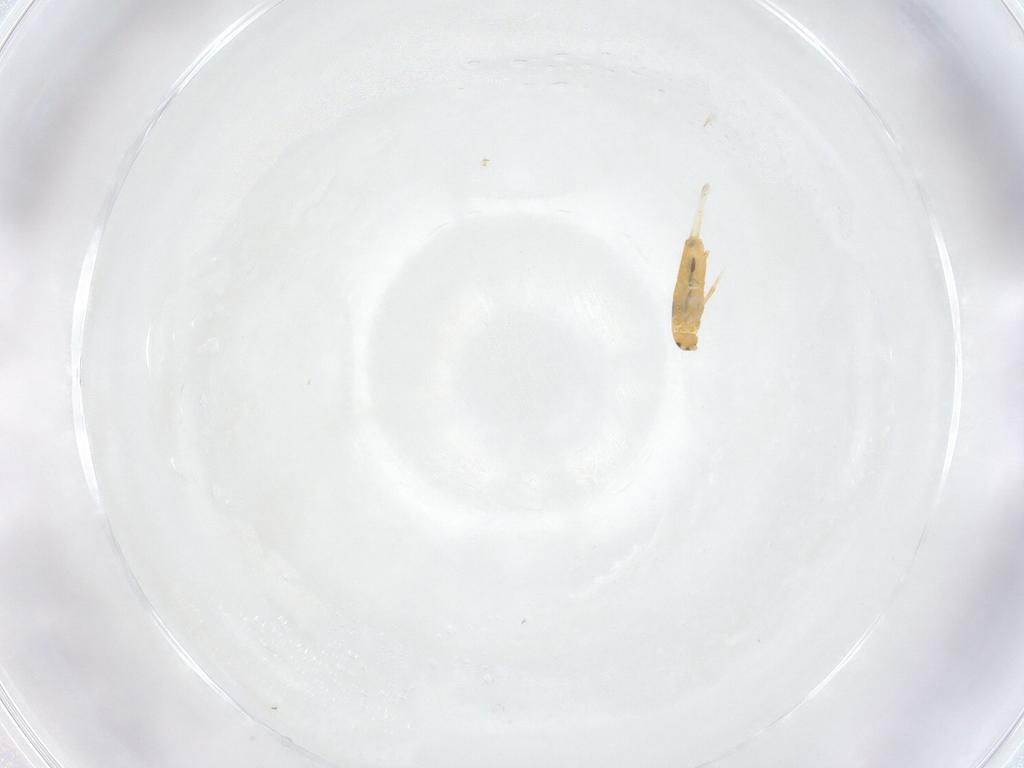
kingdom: Animalia
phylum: Arthropoda
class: Collembola
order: Entomobryomorpha
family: Entomobryidae
